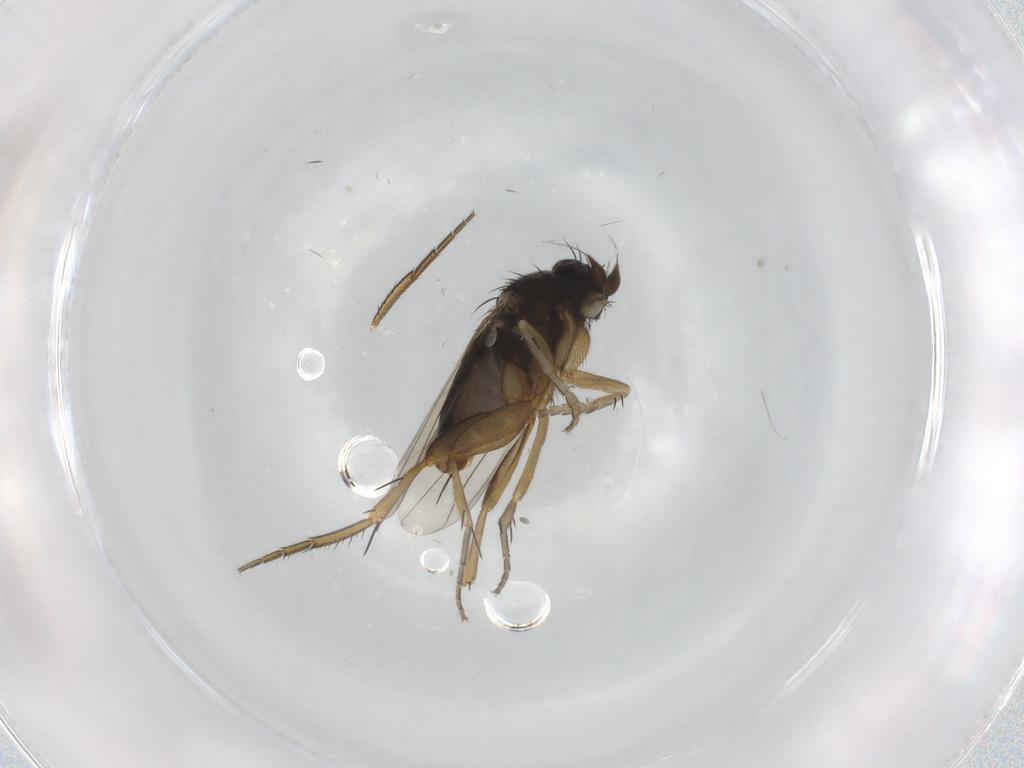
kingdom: Animalia
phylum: Arthropoda
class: Insecta
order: Diptera
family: Phoridae
